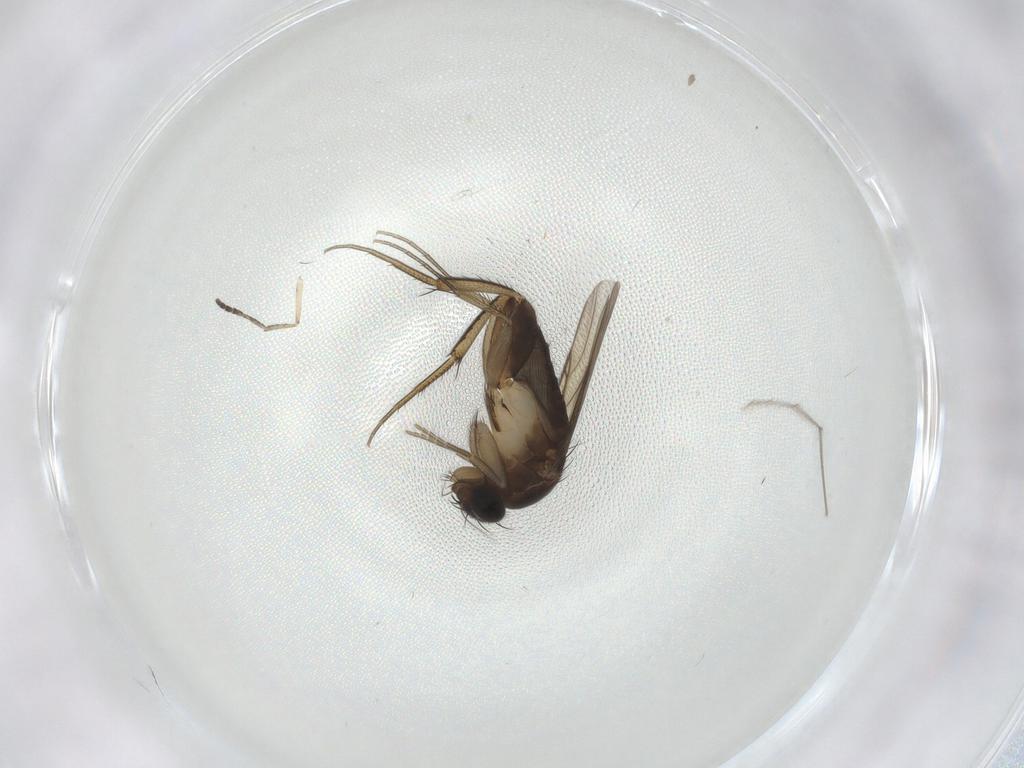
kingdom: Animalia
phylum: Arthropoda
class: Insecta
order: Diptera
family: Phoridae
